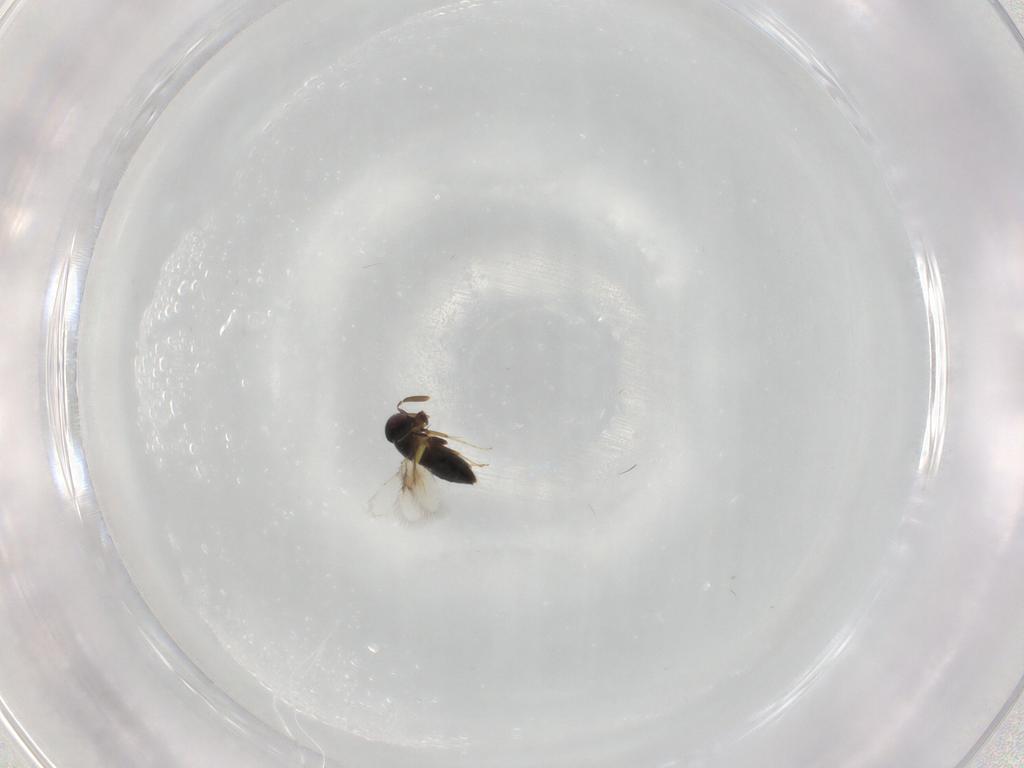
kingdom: Animalia
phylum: Arthropoda
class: Insecta
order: Hymenoptera
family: Signiphoridae
